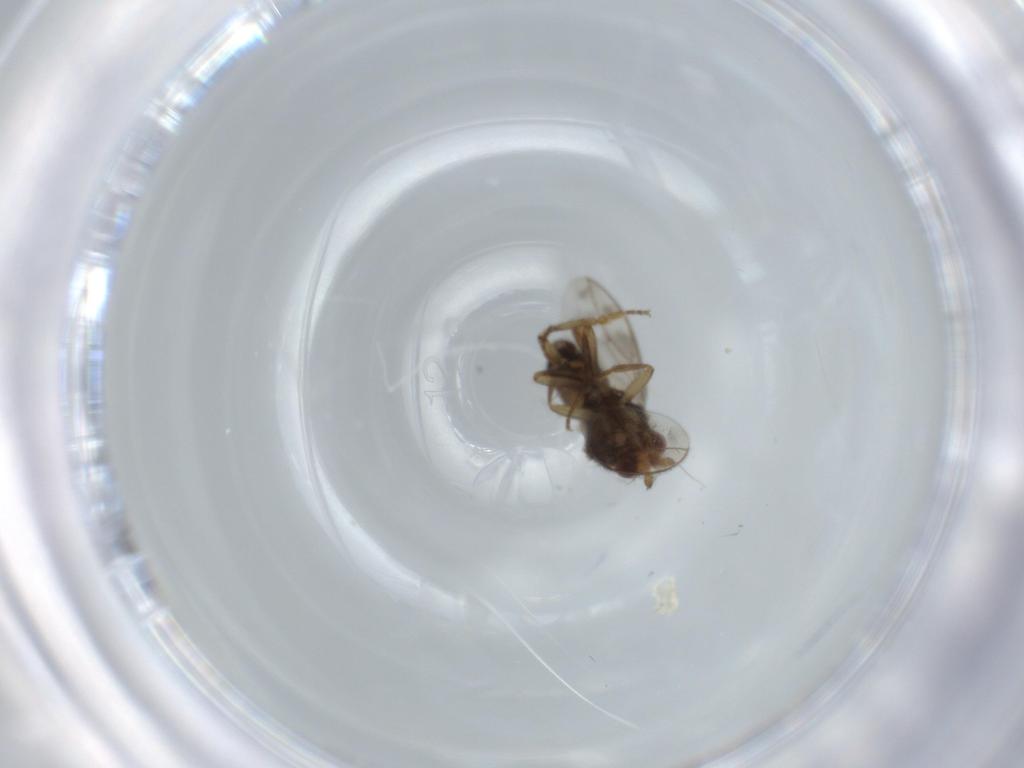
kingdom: Animalia
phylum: Arthropoda
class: Insecta
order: Diptera
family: Sphaeroceridae
